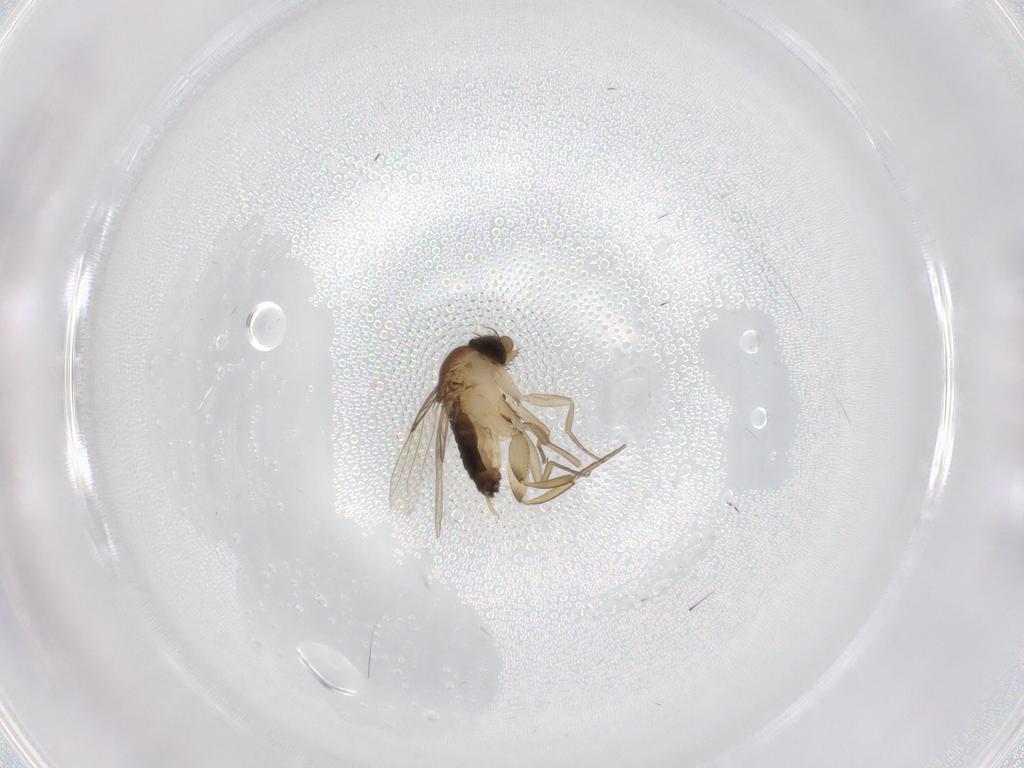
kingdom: Animalia
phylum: Arthropoda
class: Insecta
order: Diptera
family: Phoridae
